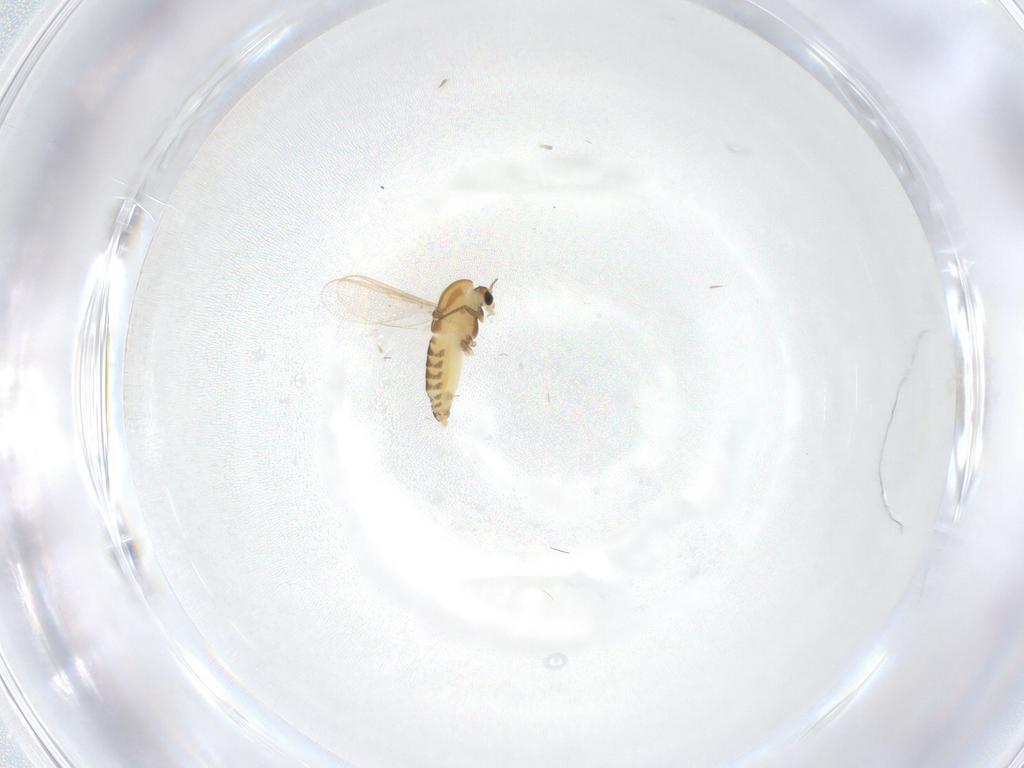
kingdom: Animalia
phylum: Arthropoda
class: Insecta
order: Diptera
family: Chironomidae
